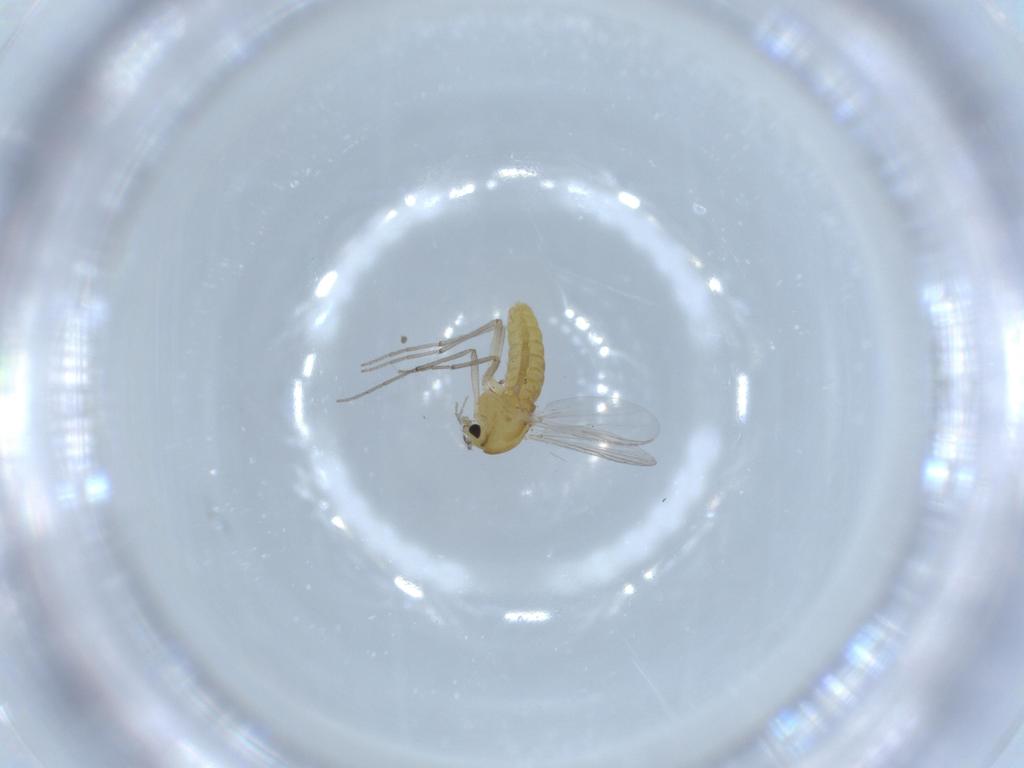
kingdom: Animalia
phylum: Arthropoda
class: Insecta
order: Diptera
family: Chironomidae
